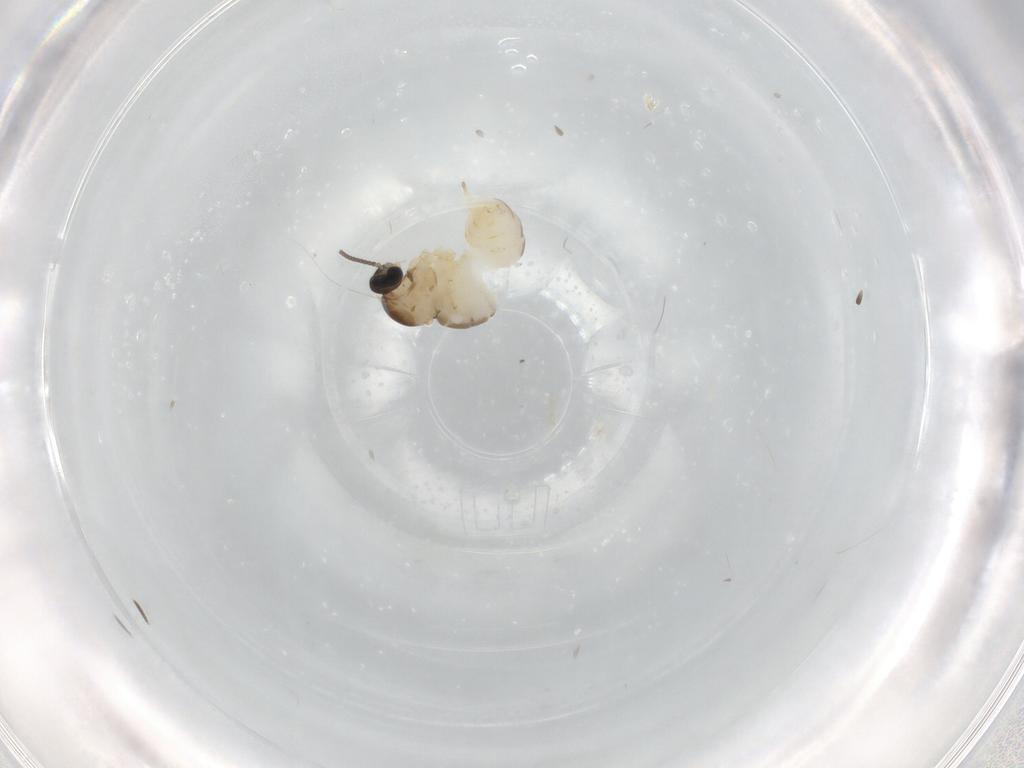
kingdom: Animalia
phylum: Arthropoda
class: Insecta
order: Diptera
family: Cecidomyiidae
